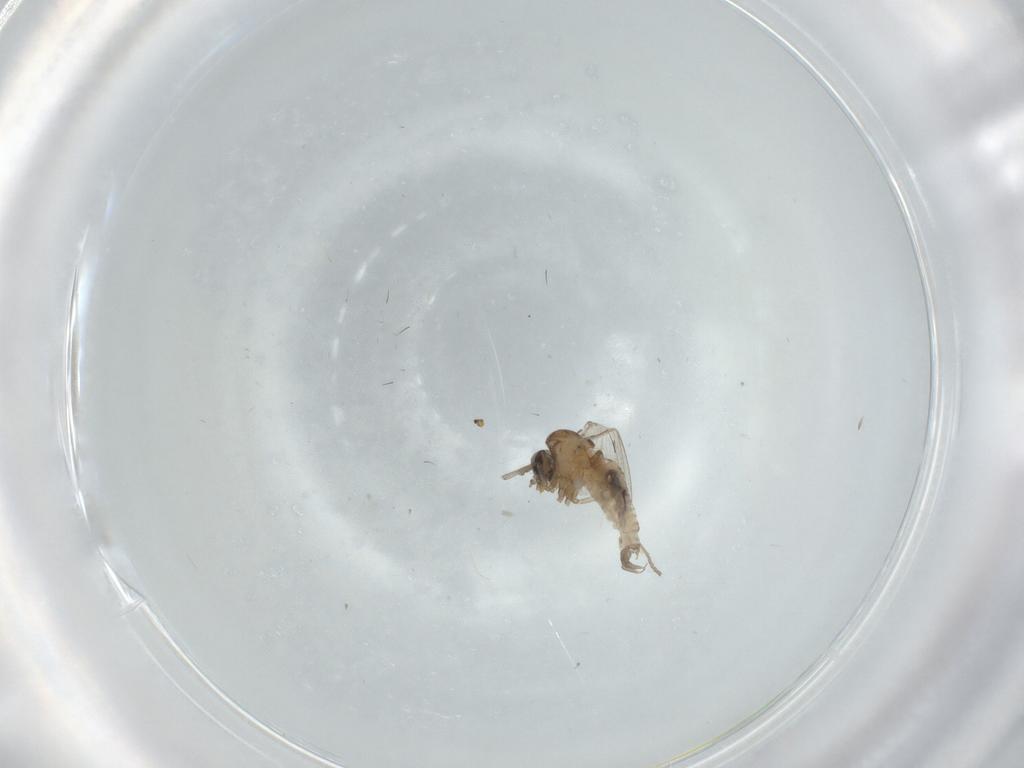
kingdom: Animalia
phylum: Arthropoda
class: Insecta
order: Diptera
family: Psychodidae
